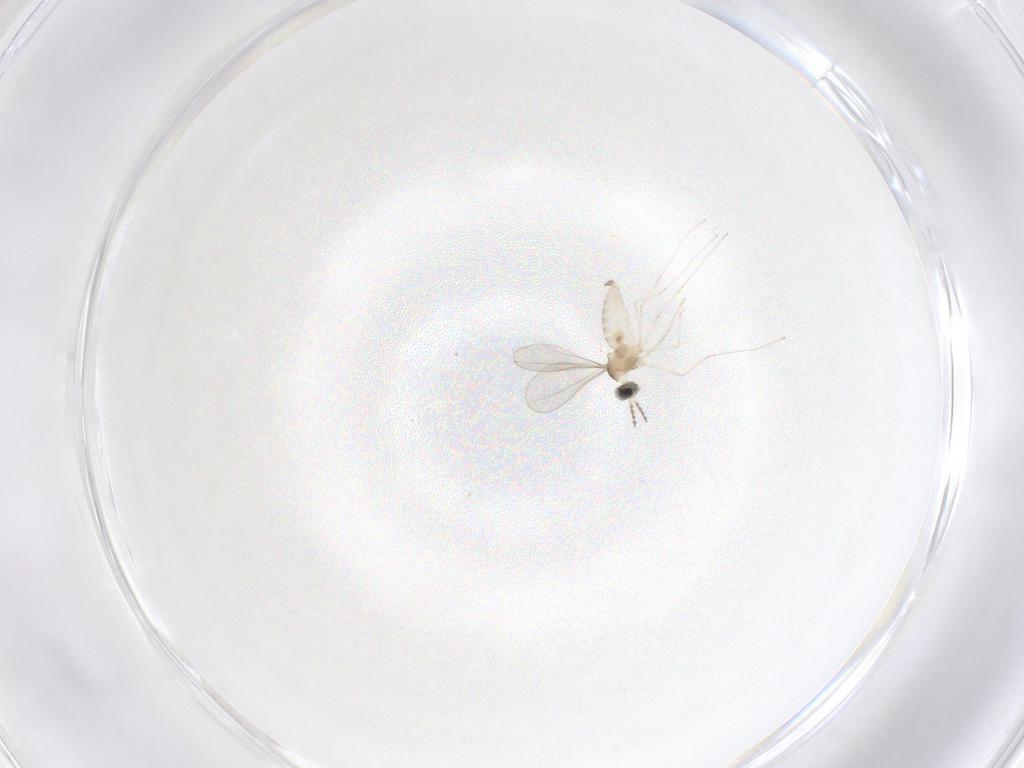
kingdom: Animalia
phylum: Arthropoda
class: Insecta
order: Diptera
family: Cecidomyiidae
